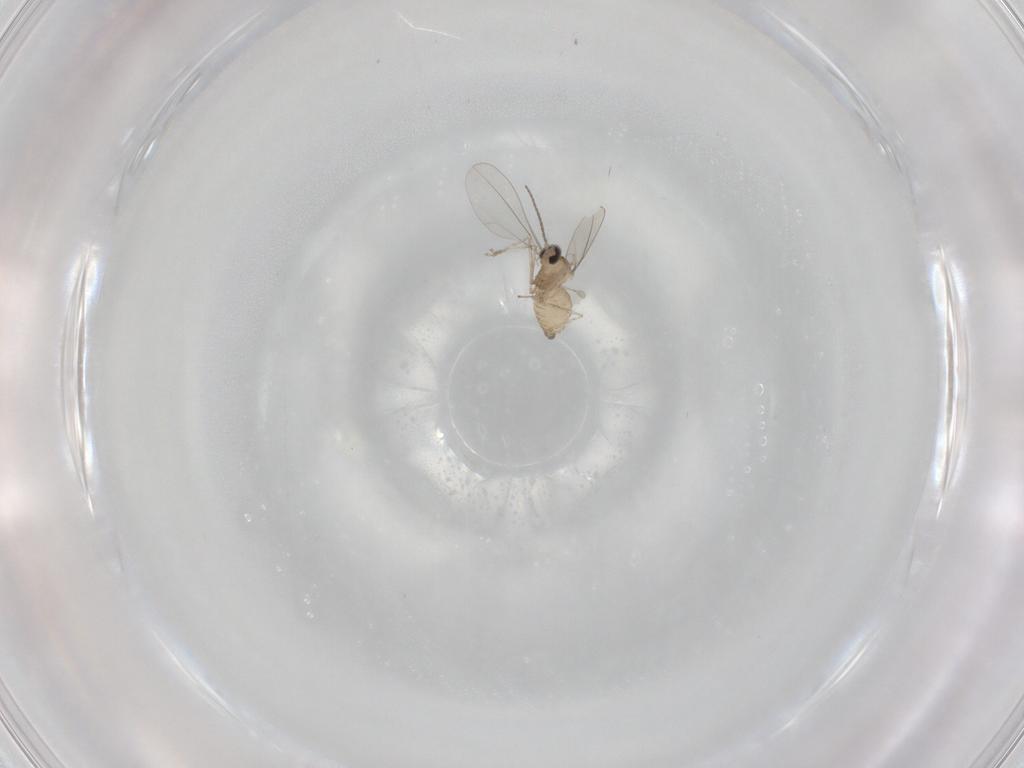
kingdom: Animalia
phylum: Arthropoda
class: Insecta
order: Diptera
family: Cecidomyiidae
